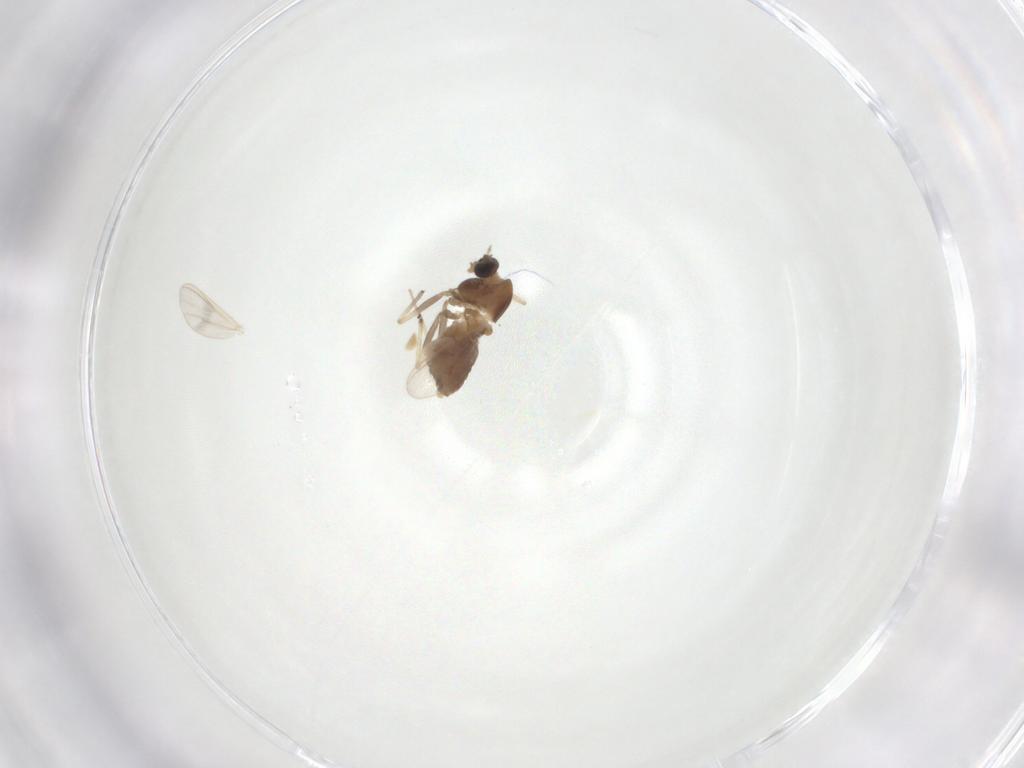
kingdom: Animalia
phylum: Arthropoda
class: Insecta
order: Diptera
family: Chironomidae
